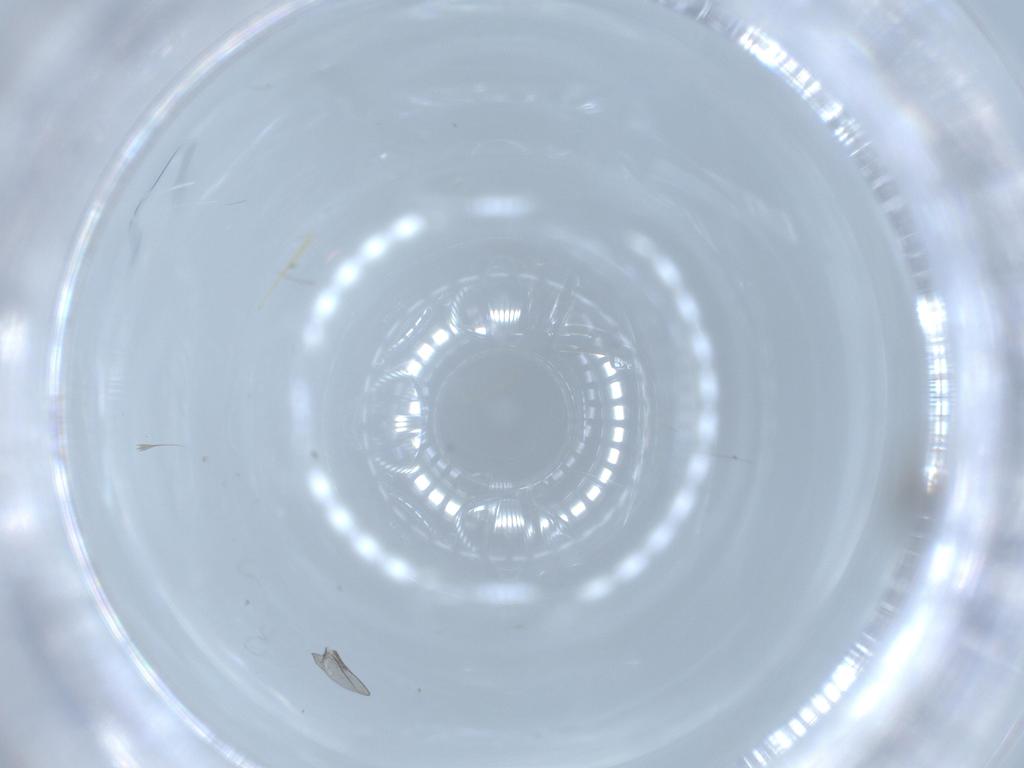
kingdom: Animalia
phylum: Arthropoda
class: Insecta
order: Diptera
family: Cecidomyiidae
